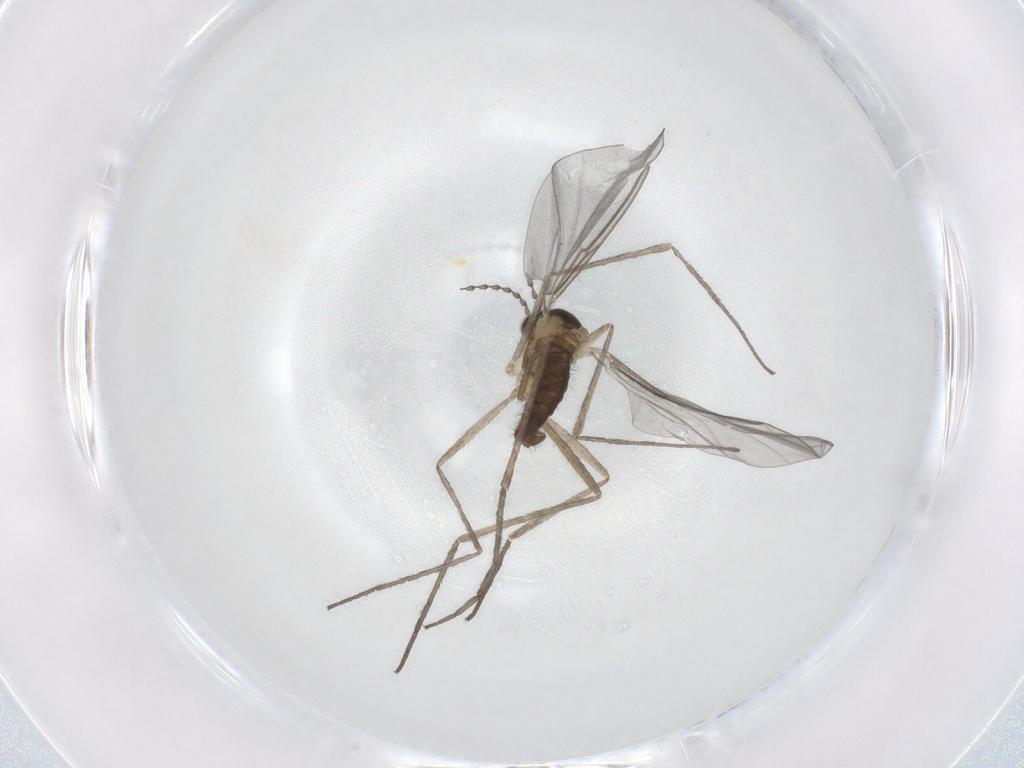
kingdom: Animalia
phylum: Arthropoda
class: Insecta
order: Diptera
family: Cecidomyiidae
